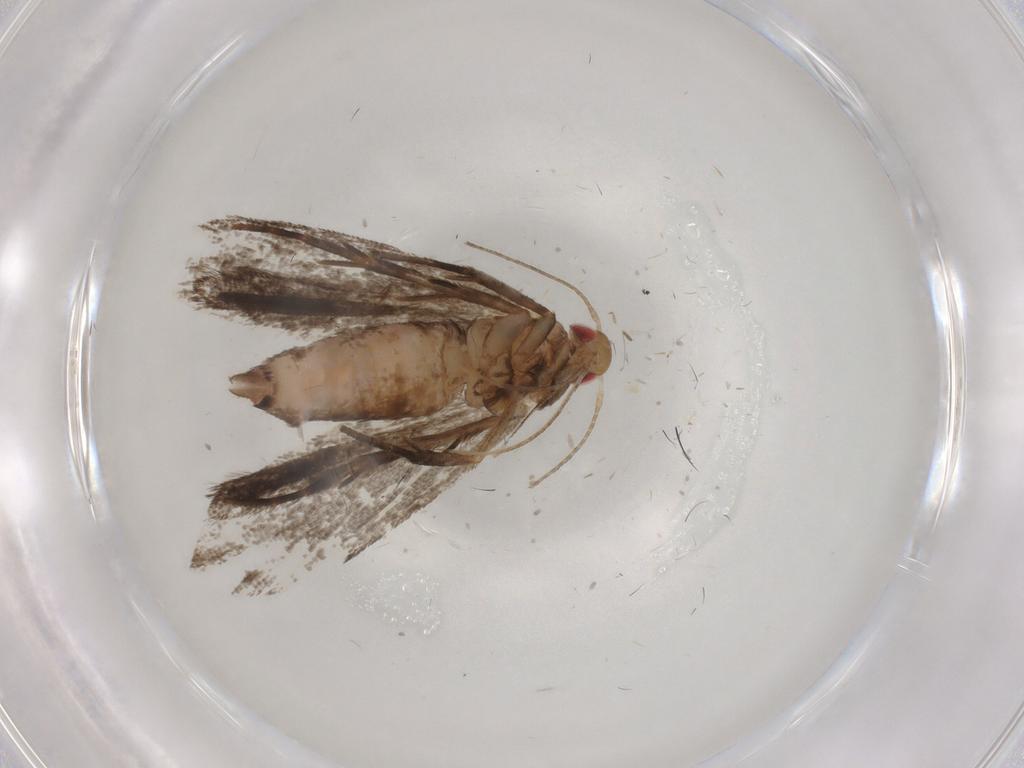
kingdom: Animalia
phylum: Arthropoda
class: Insecta
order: Lepidoptera
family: Gelechiidae
